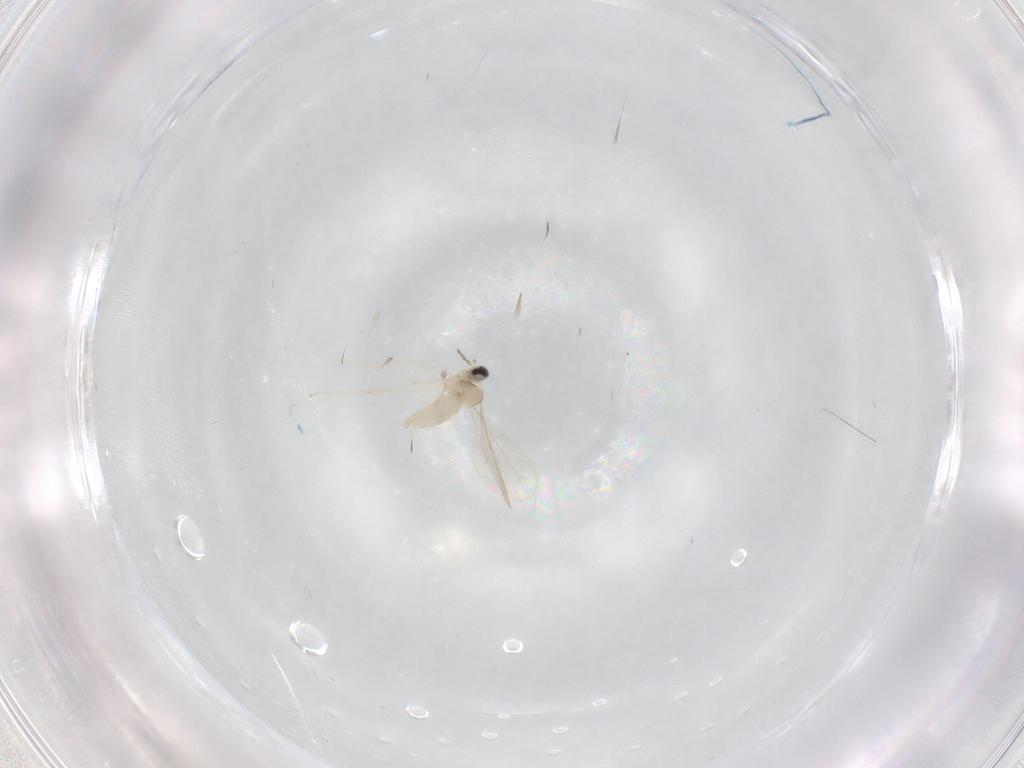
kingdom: Animalia
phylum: Arthropoda
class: Insecta
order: Diptera
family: Cecidomyiidae
